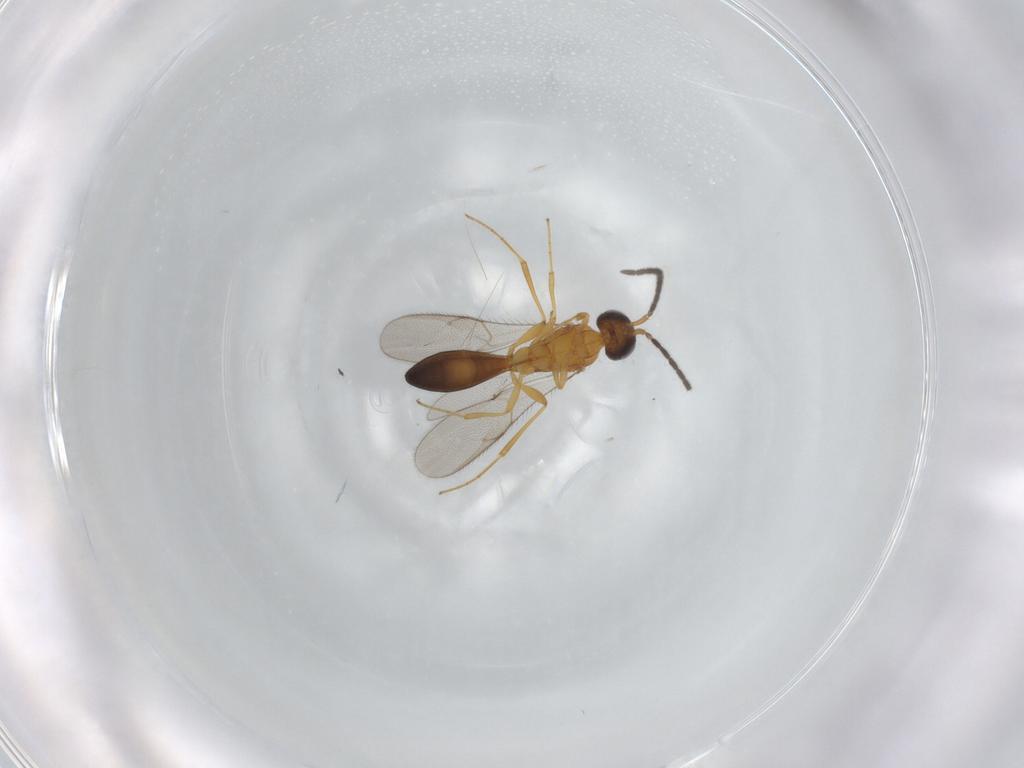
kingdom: Animalia
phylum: Arthropoda
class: Insecta
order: Hymenoptera
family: Scelionidae
